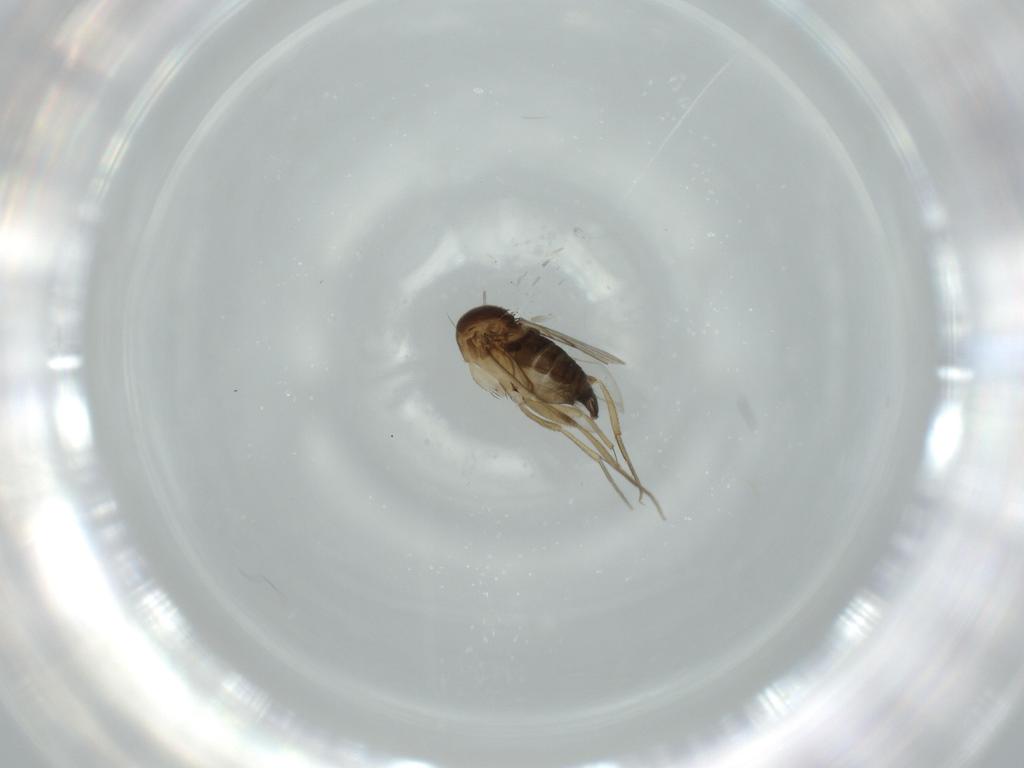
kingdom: Animalia
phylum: Arthropoda
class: Insecta
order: Diptera
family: Phoridae
